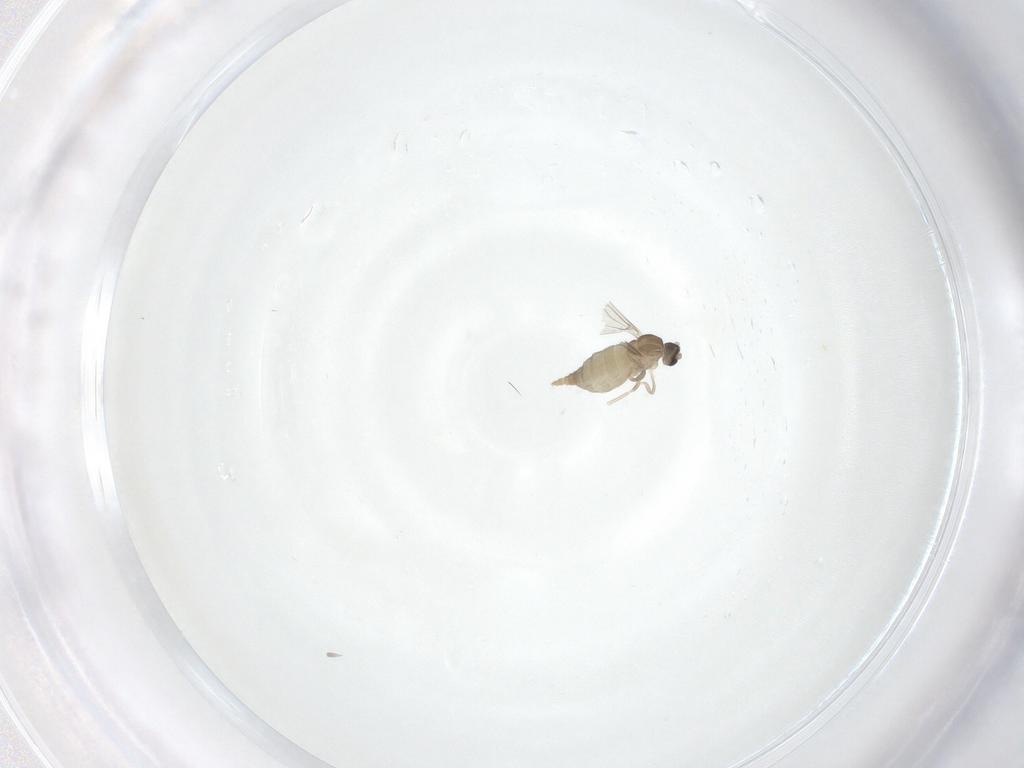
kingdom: Animalia
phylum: Arthropoda
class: Insecta
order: Diptera
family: Cecidomyiidae
